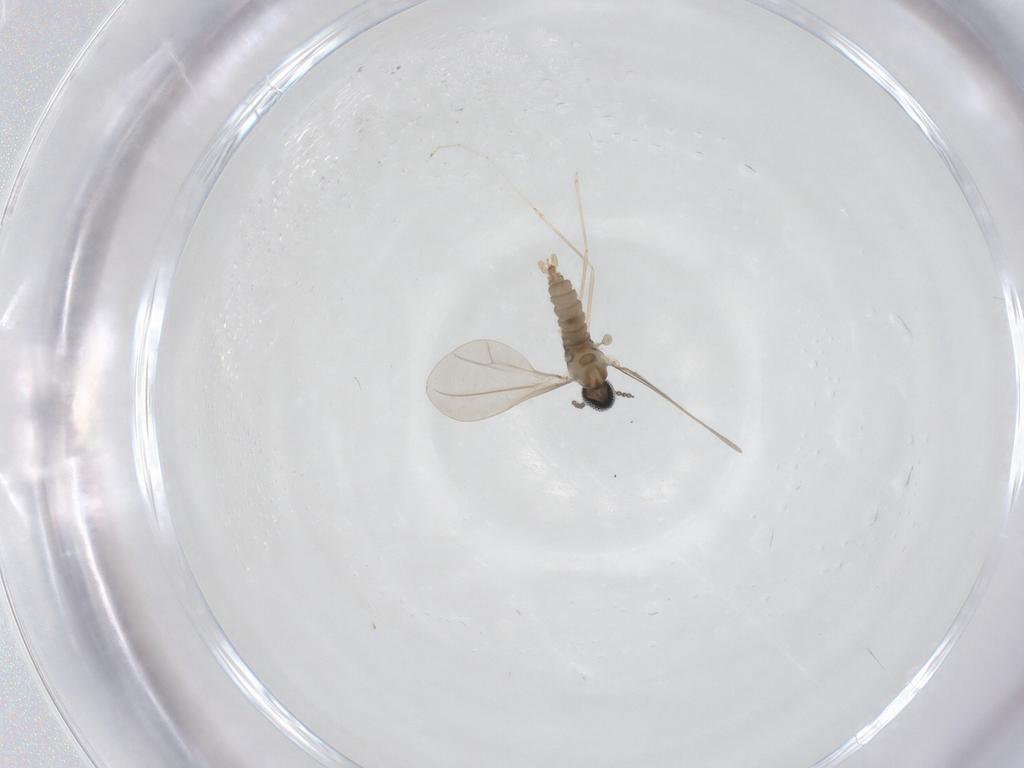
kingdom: Animalia
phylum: Arthropoda
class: Insecta
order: Diptera
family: Cecidomyiidae
